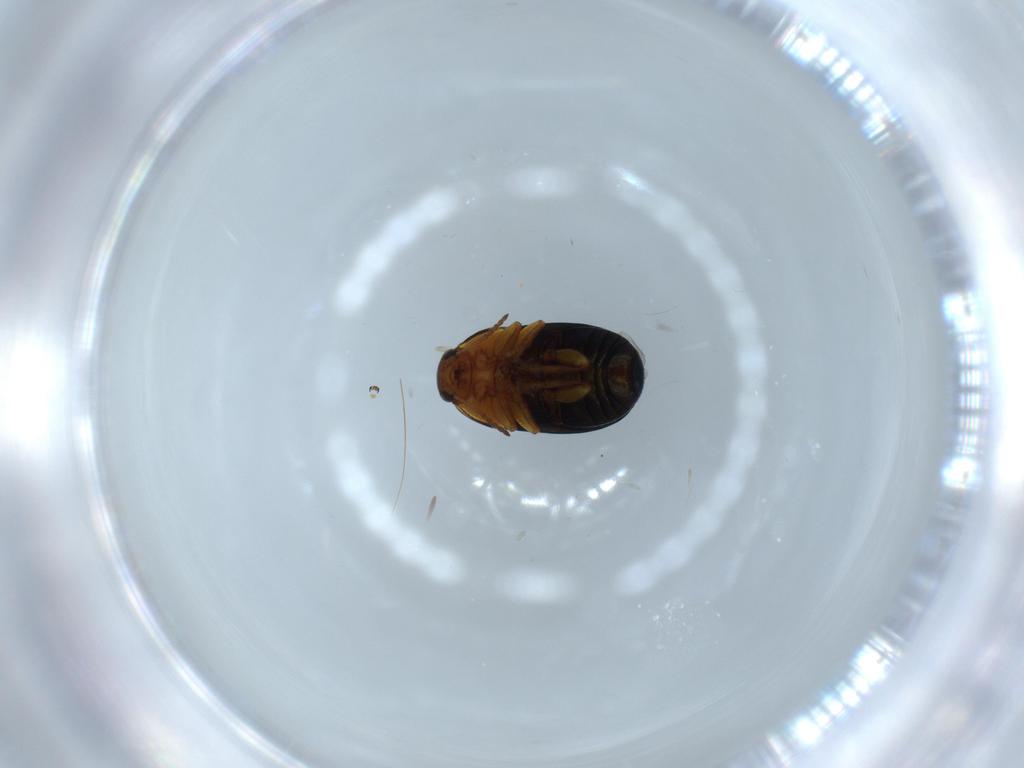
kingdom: Animalia
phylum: Arthropoda
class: Insecta
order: Coleoptera
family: Chrysomelidae
